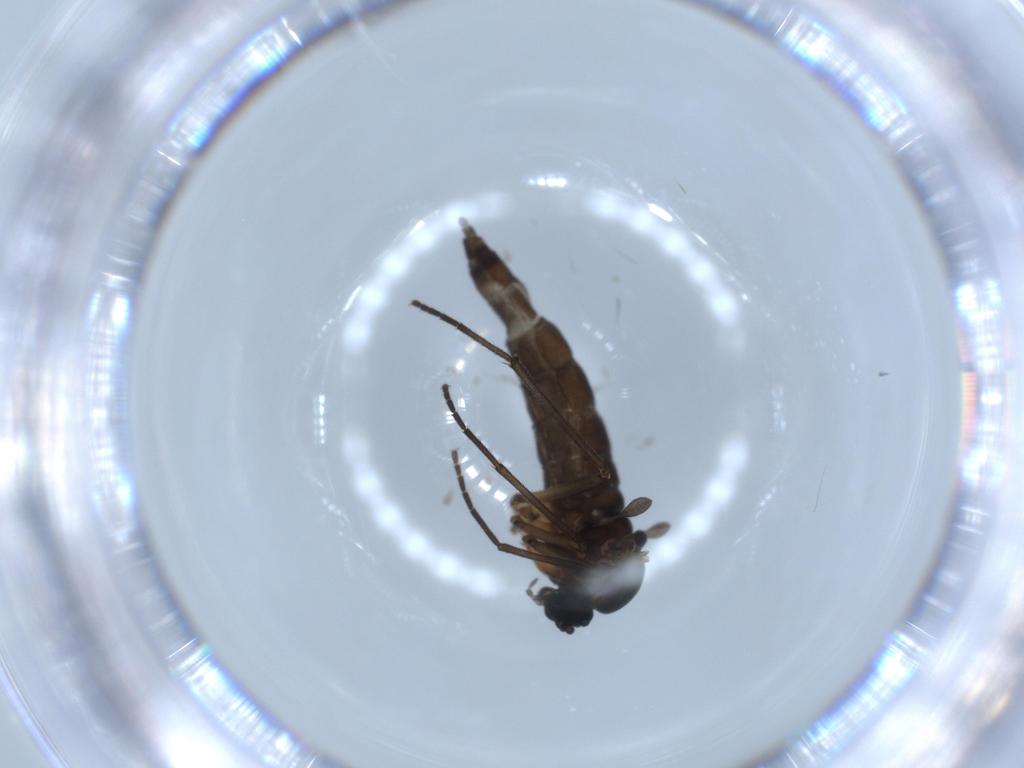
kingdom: Animalia
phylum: Arthropoda
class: Insecta
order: Diptera
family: Sciaridae
